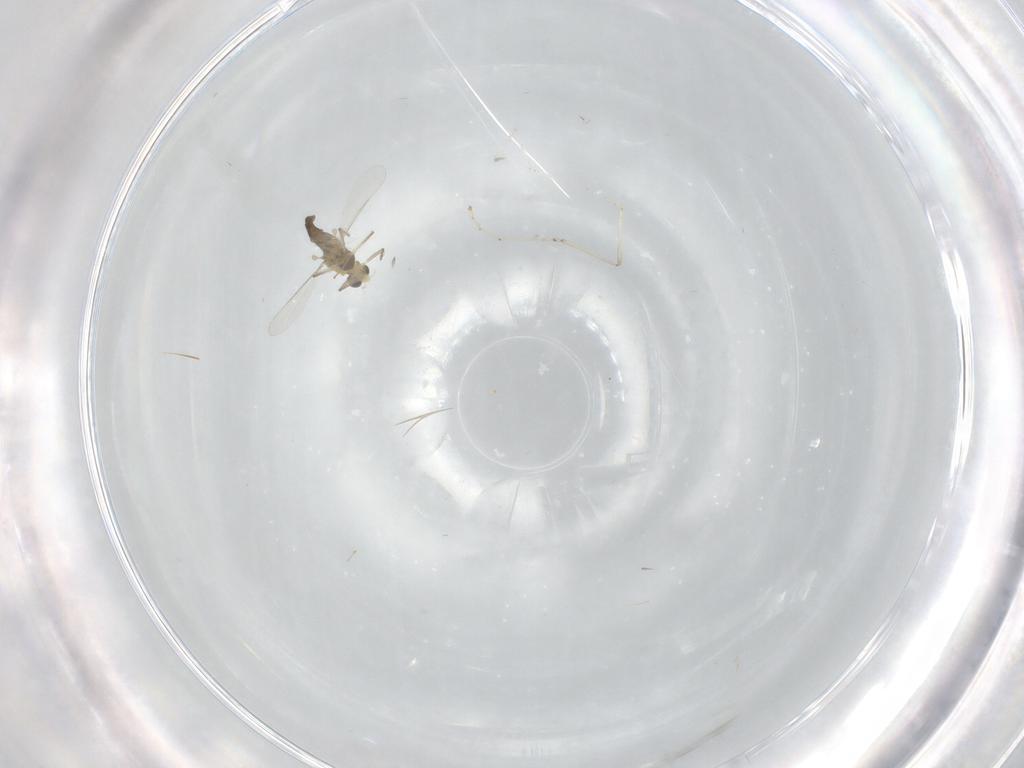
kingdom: Animalia
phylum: Arthropoda
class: Insecta
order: Diptera
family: Cecidomyiidae
